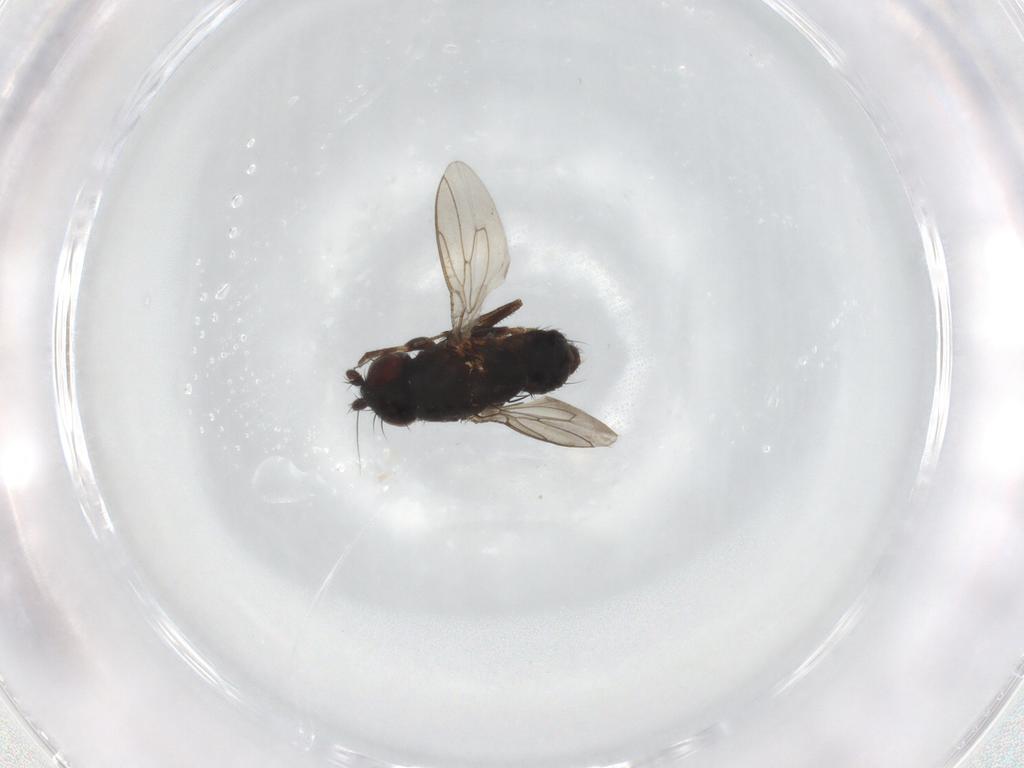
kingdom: Animalia
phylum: Arthropoda
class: Insecta
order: Diptera
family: Sphaeroceridae
